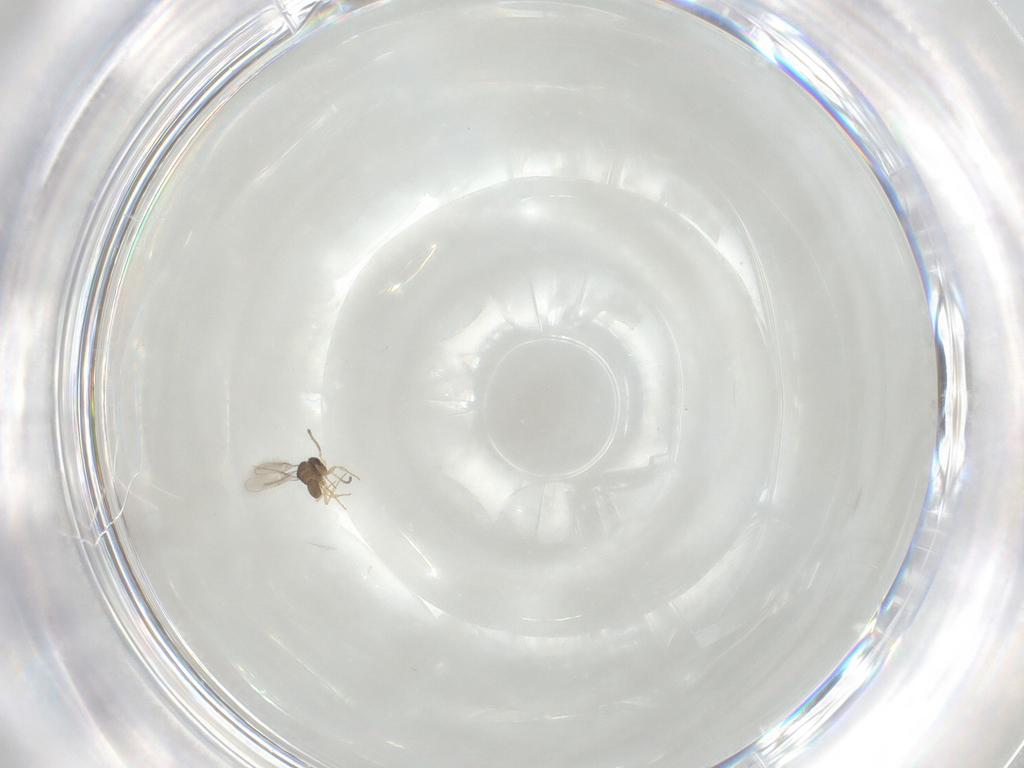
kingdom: Animalia
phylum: Arthropoda
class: Insecta
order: Hymenoptera
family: Scelionidae
